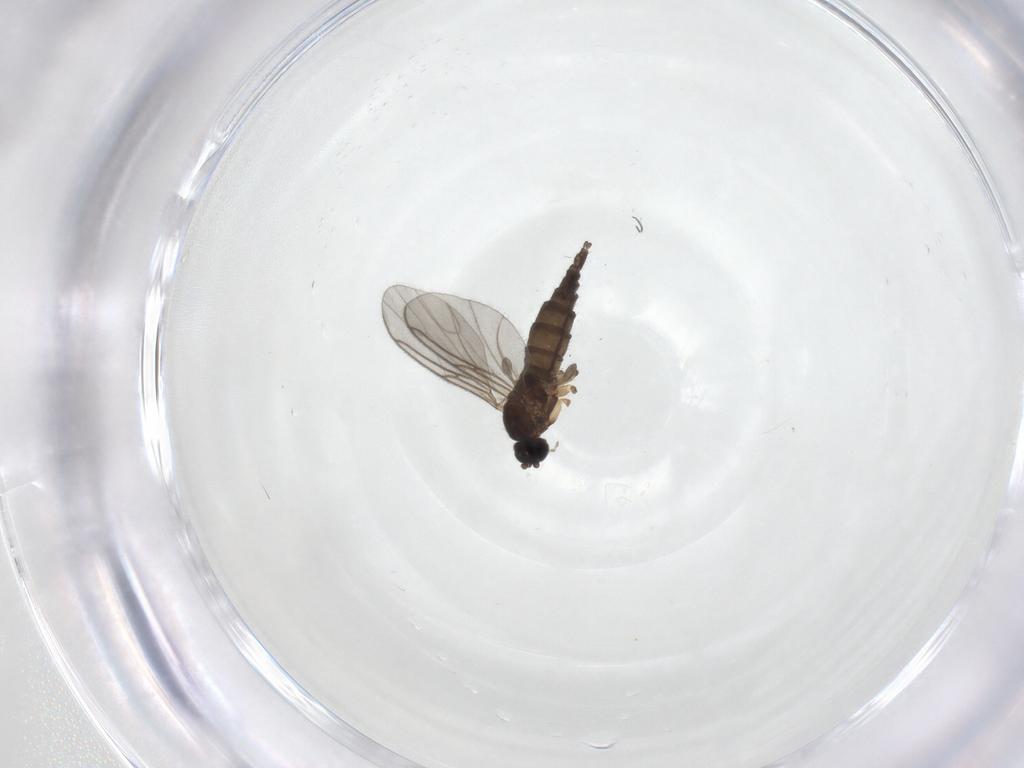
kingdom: Animalia
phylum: Arthropoda
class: Insecta
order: Diptera
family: Sciaridae
